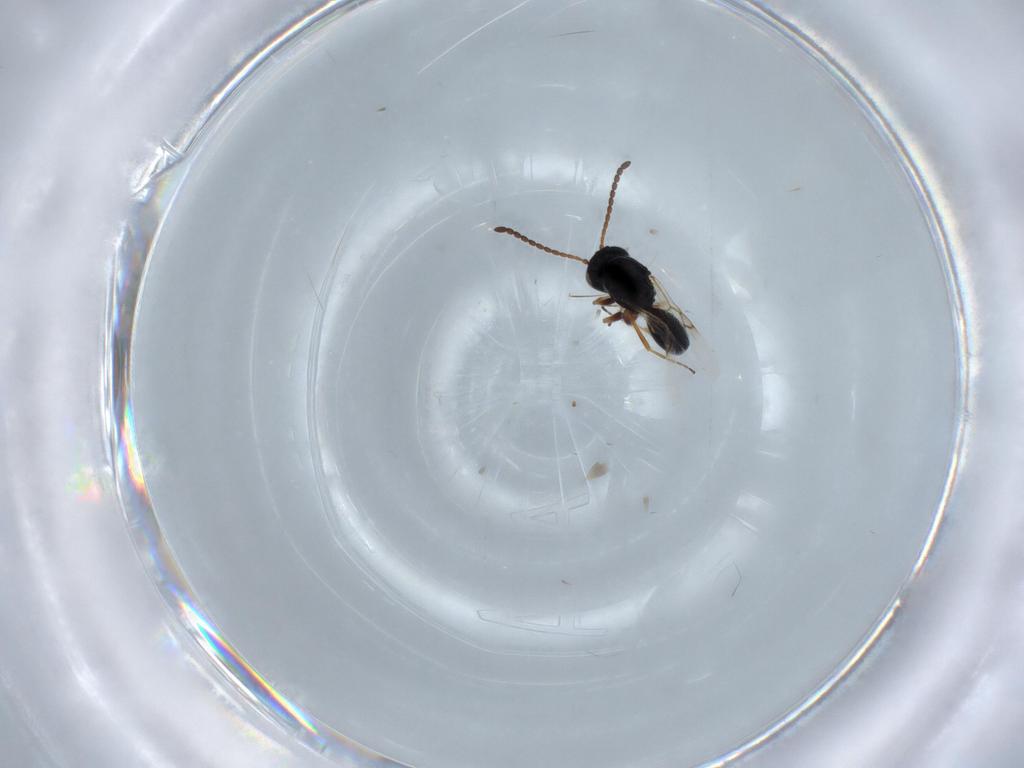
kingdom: Animalia
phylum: Arthropoda
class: Insecta
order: Hymenoptera
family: Figitidae
